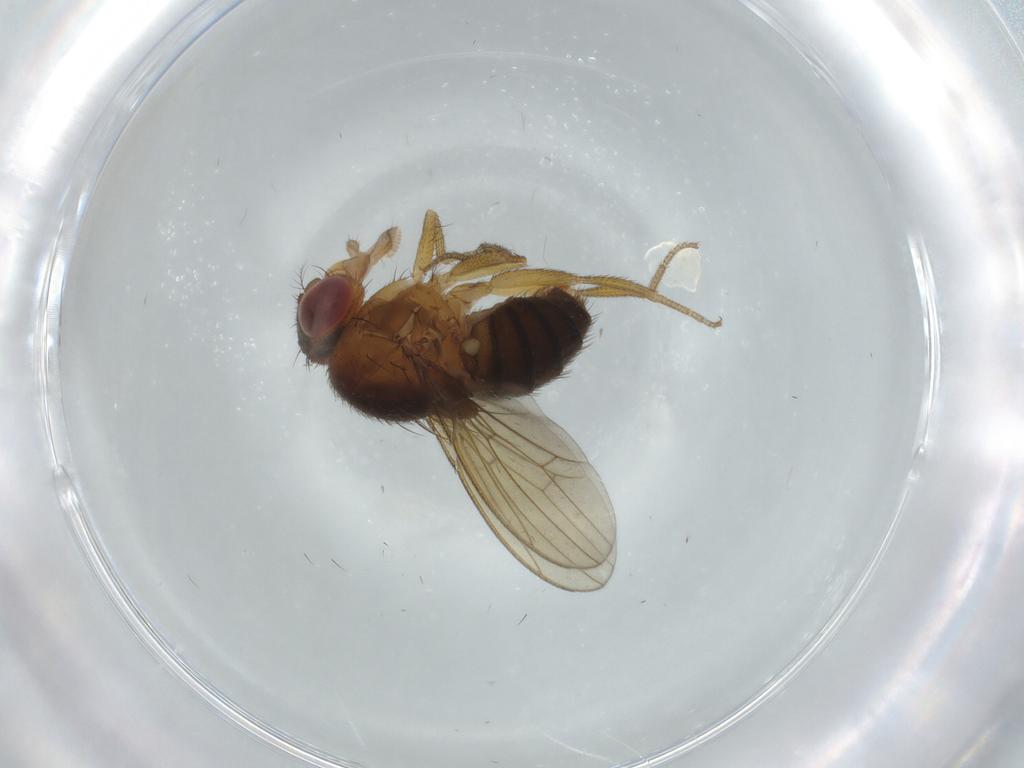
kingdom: Animalia
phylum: Arthropoda
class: Insecta
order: Diptera
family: Drosophilidae
